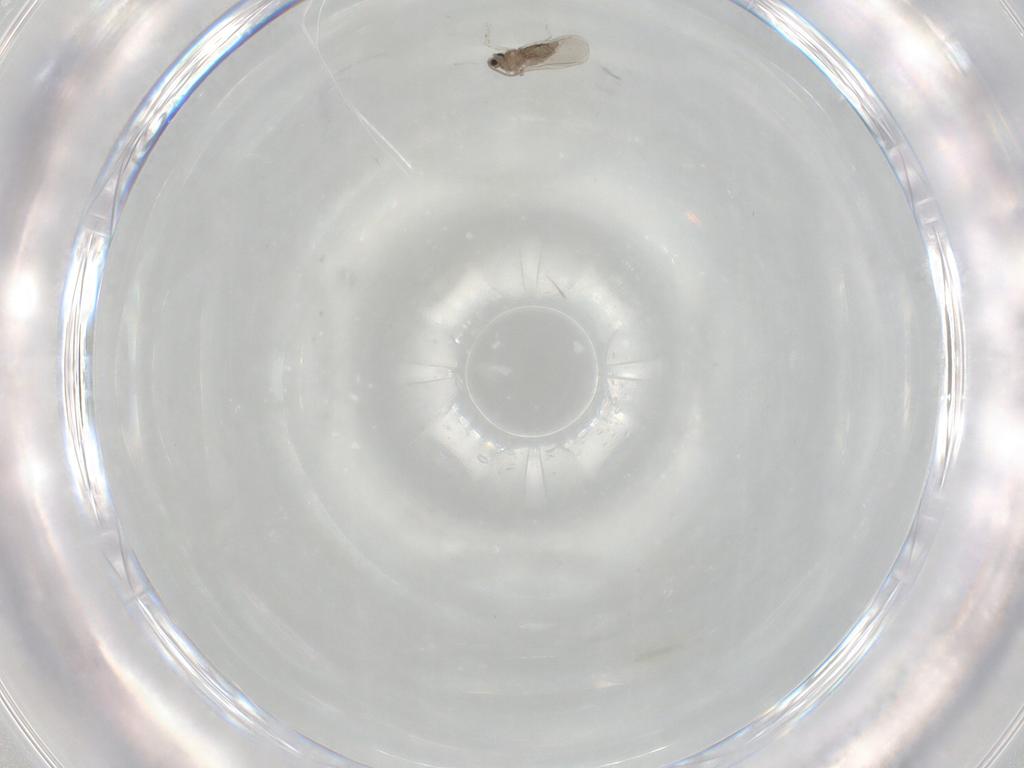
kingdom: Animalia
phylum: Arthropoda
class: Insecta
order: Diptera
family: Cecidomyiidae
